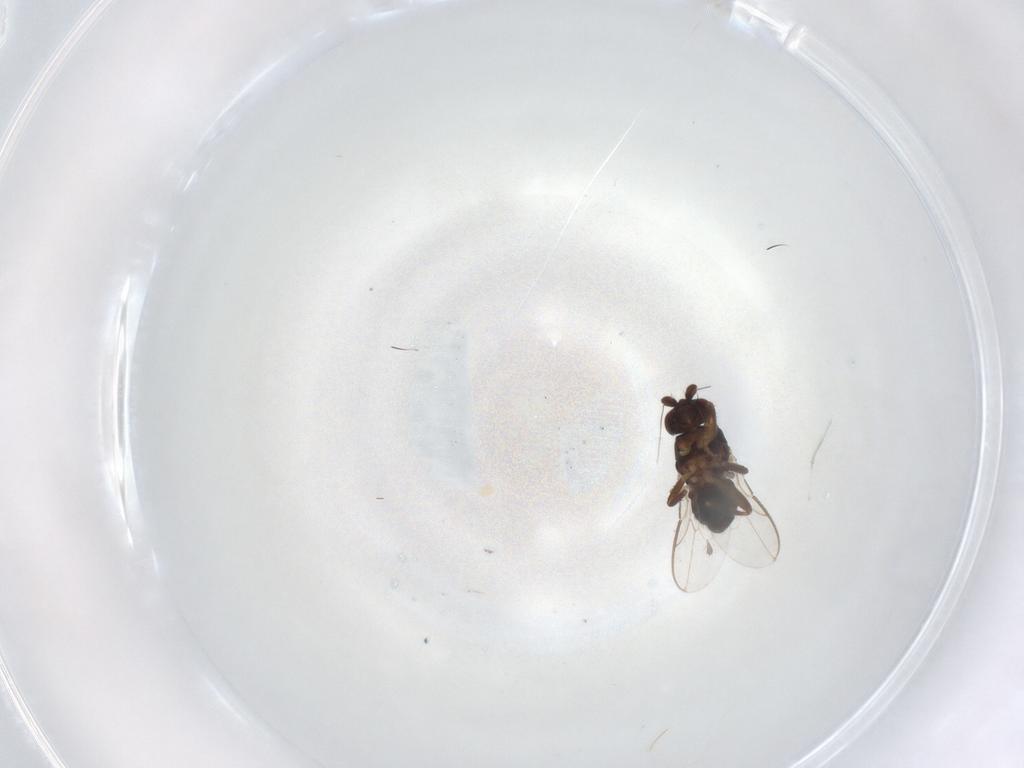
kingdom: Animalia
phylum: Arthropoda
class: Insecta
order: Diptera
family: Sphaeroceridae
